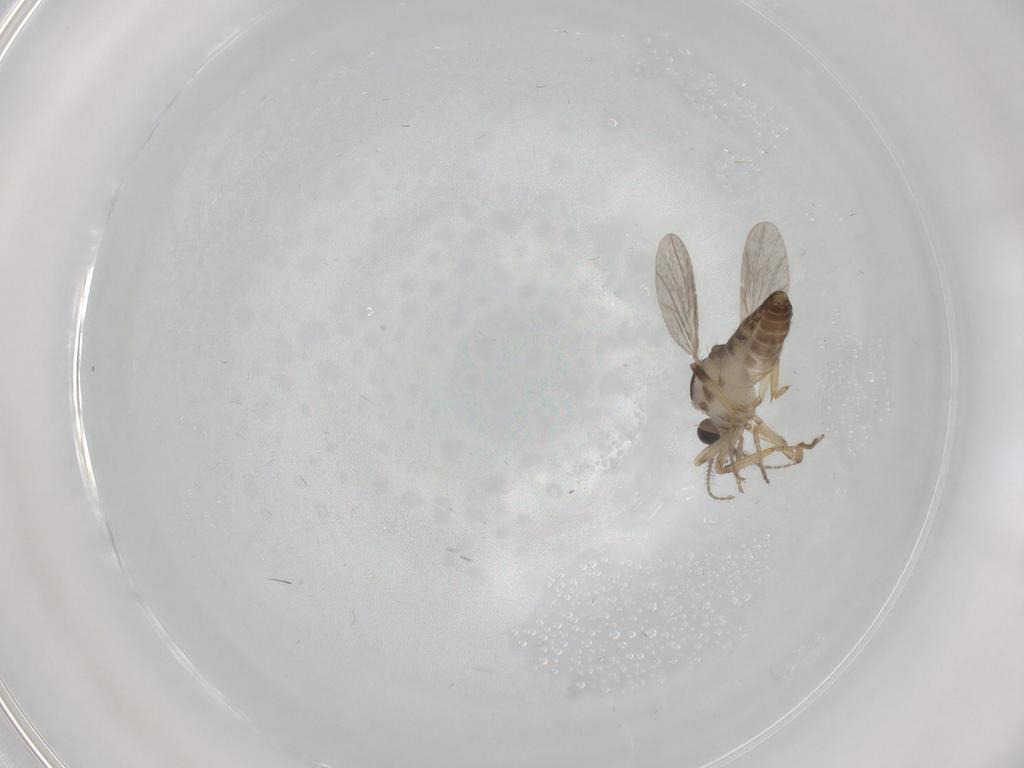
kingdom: Animalia
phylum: Arthropoda
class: Insecta
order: Diptera
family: Ceratopogonidae
